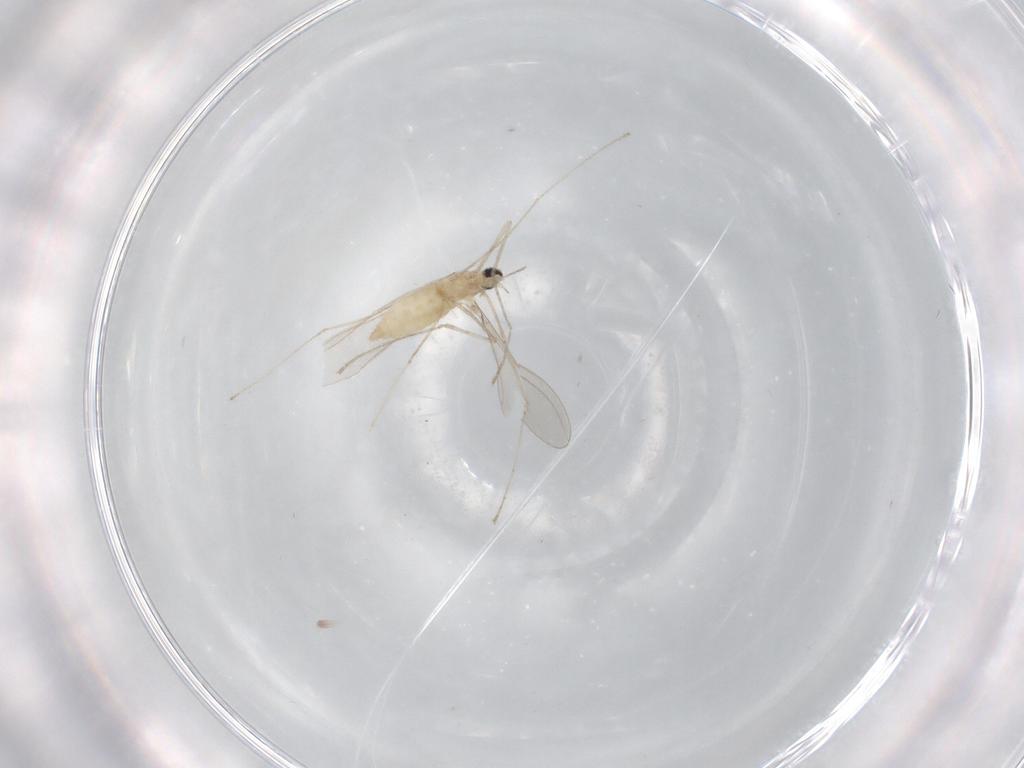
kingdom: Animalia
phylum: Arthropoda
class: Insecta
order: Diptera
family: Cecidomyiidae
